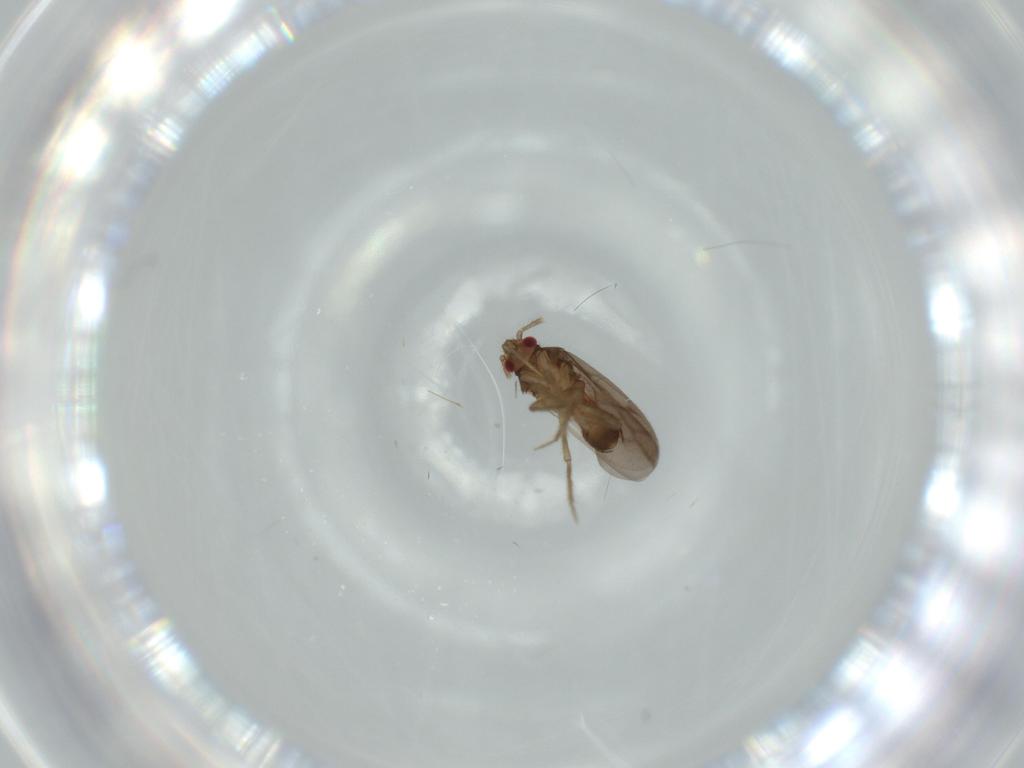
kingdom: Animalia
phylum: Arthropoda
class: Insecta
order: Hemiptera
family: Ceratocombidae
